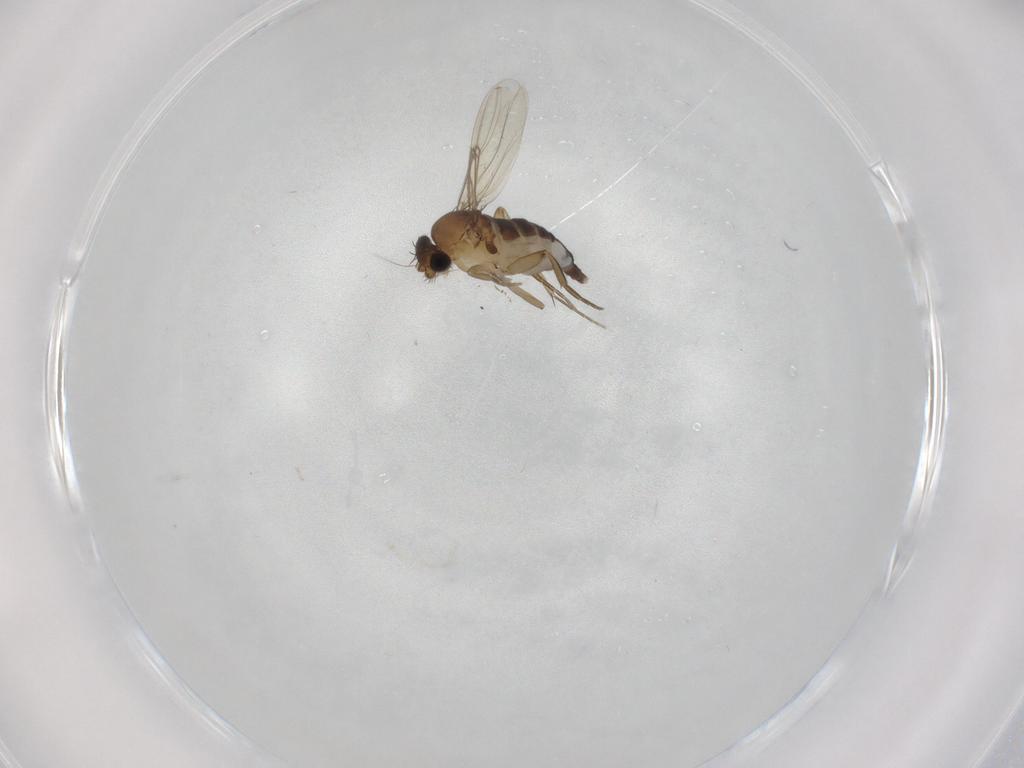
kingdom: Animalia
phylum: Arthropoda
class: Insecta
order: Diptera
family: Phoridae
